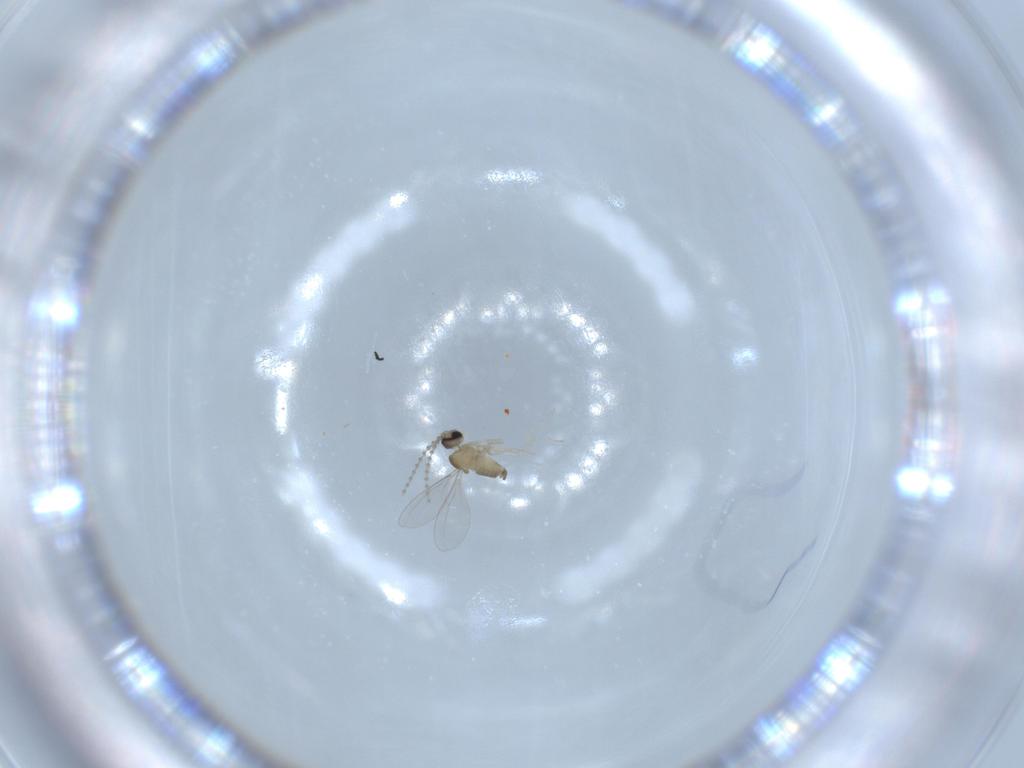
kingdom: Animalia
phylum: Arthropoda
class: Insecta
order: Diptera
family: Cecidomyiidae
